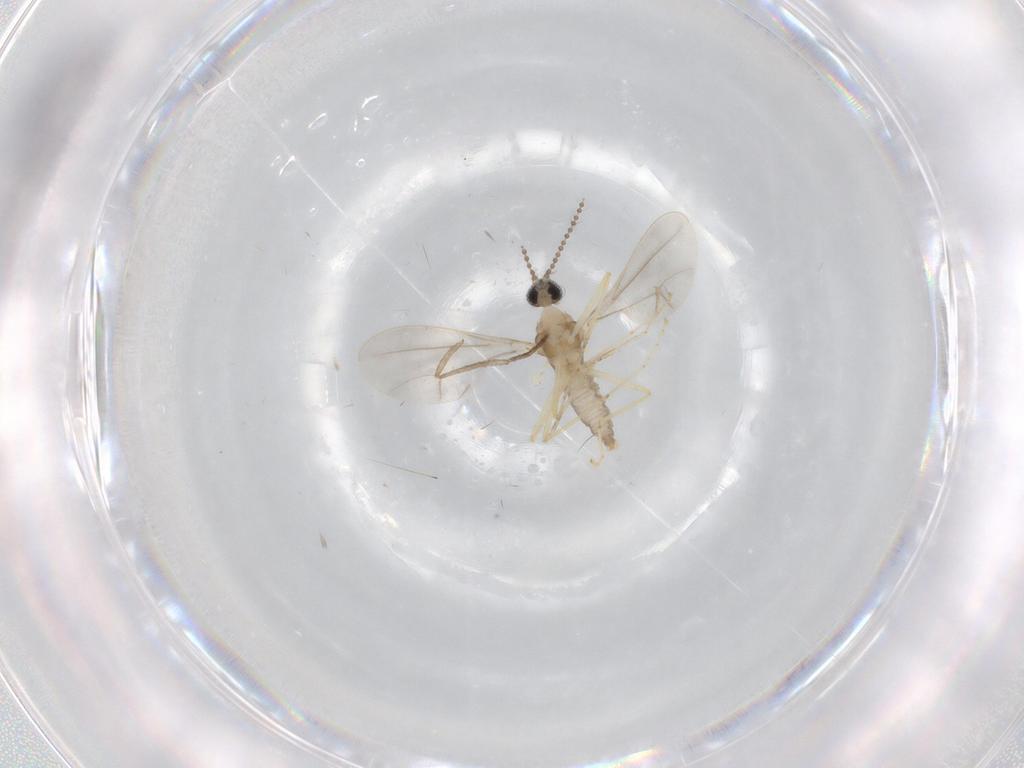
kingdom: Animalia
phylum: Arthropoda
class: Insecta
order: Diptera
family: Cecidomyiidae
